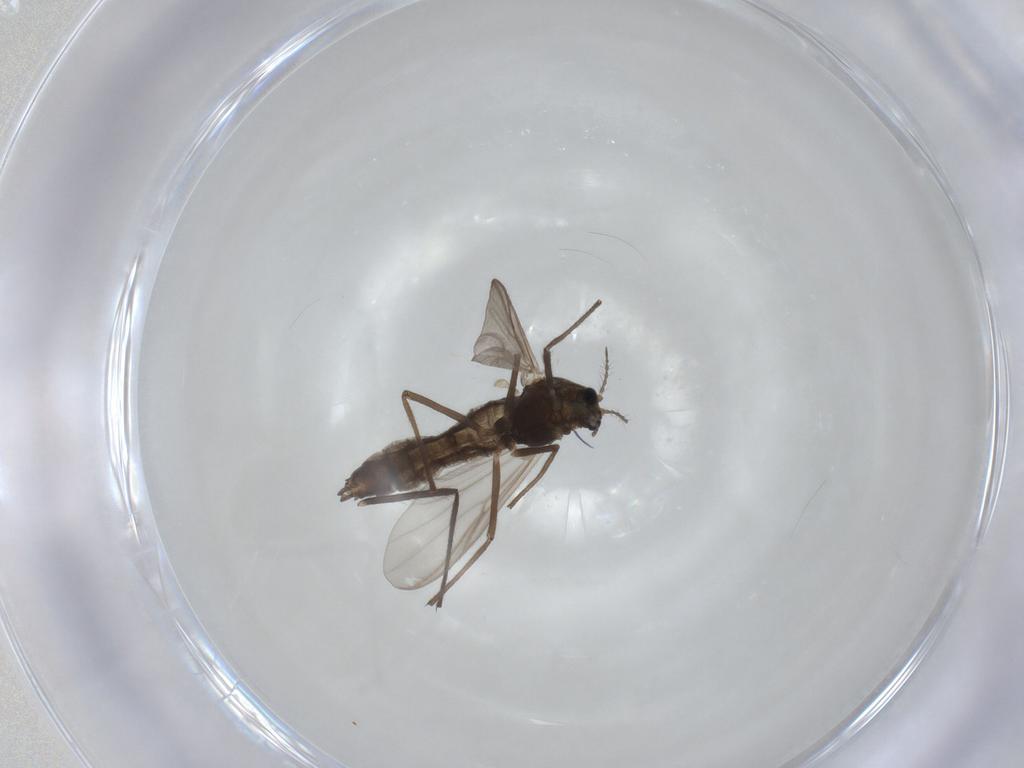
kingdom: Animalia
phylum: Arthropoda
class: Insecta
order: Diptera
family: Chironomidae
